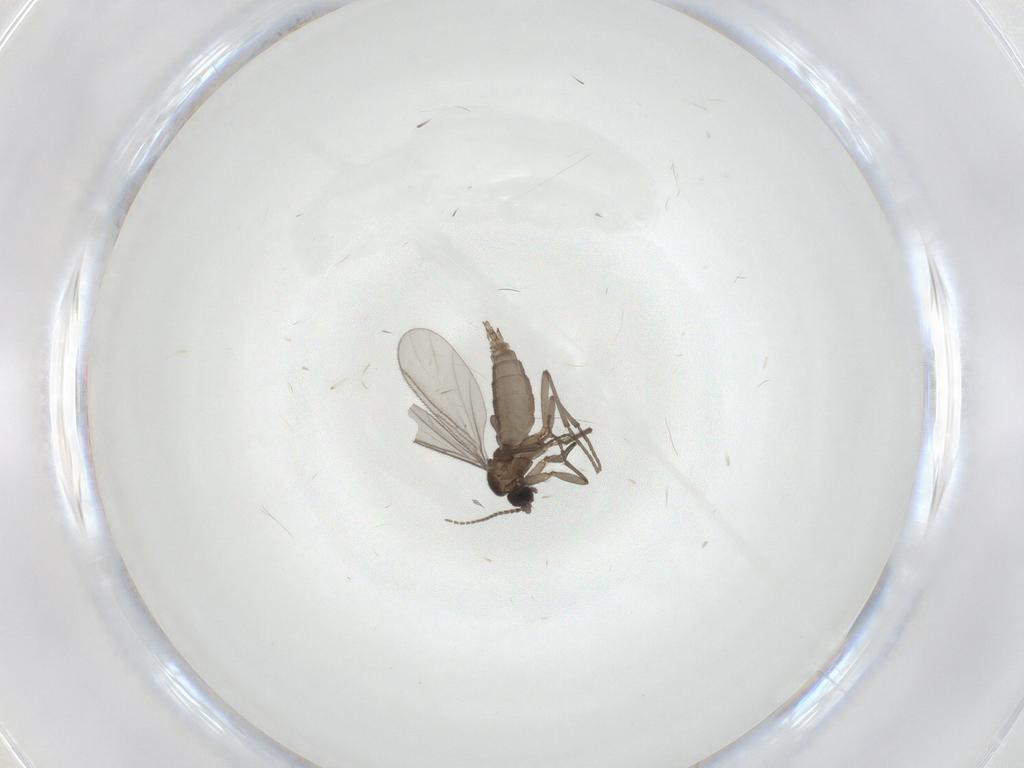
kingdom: Animalia
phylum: Arthropoda
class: Insecta
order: Diptera
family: Sciaridae
